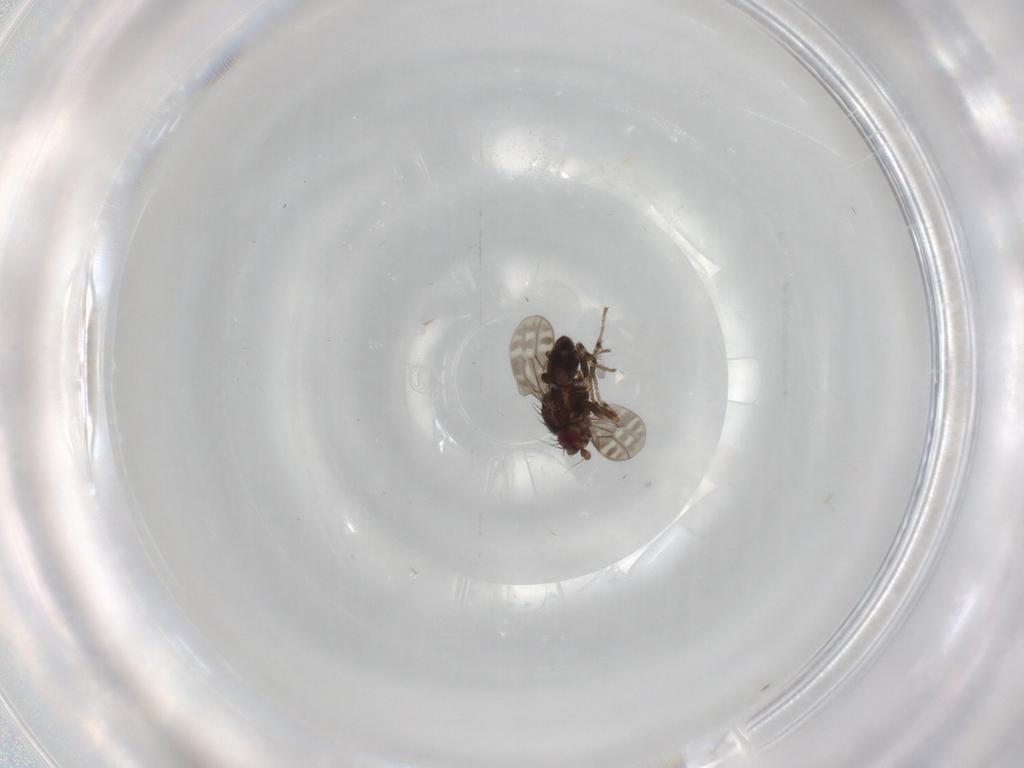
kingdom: Animalia
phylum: Arthropoda
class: Insecta
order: Diptera
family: Sphaeroceridae
